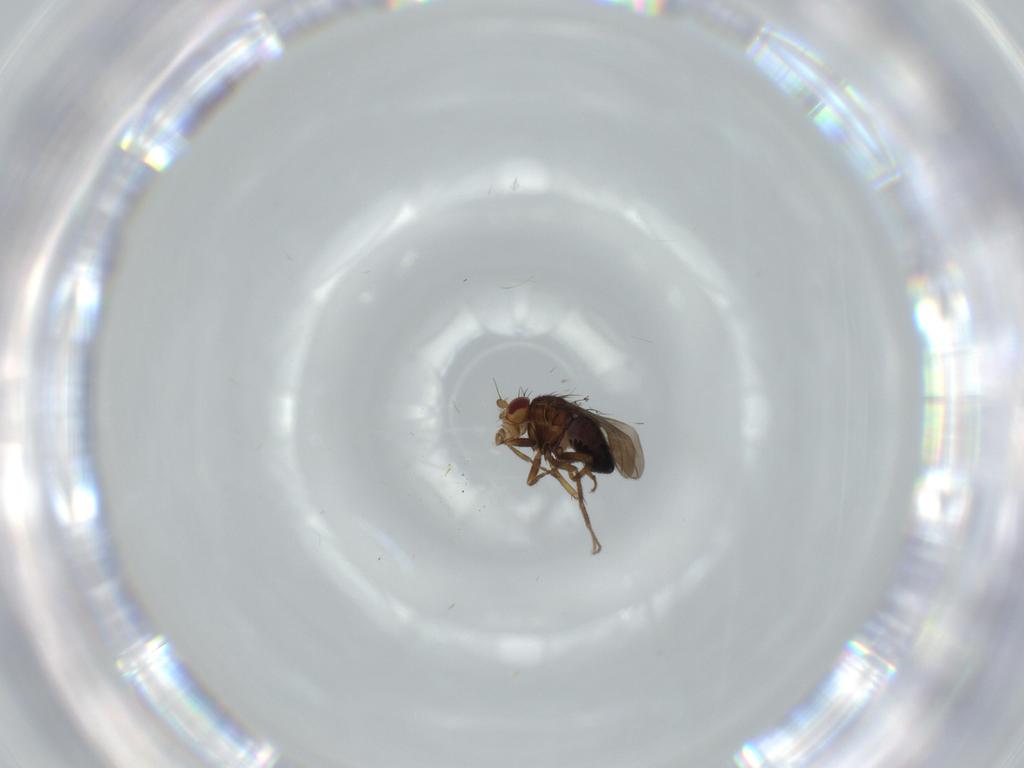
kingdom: Animalia
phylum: Arthropoda
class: Insecta
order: Diptera
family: Sphaeroceridae
